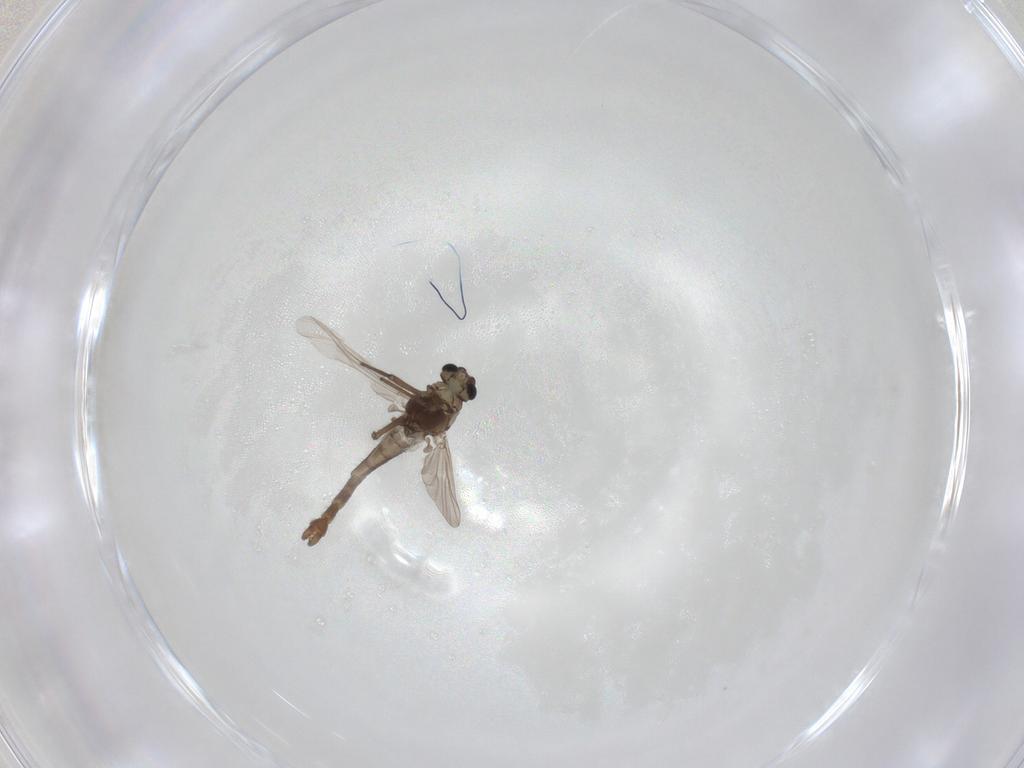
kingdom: Animalia
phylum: Arthropoda
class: Insecta
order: Diptera
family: Chironomidae
